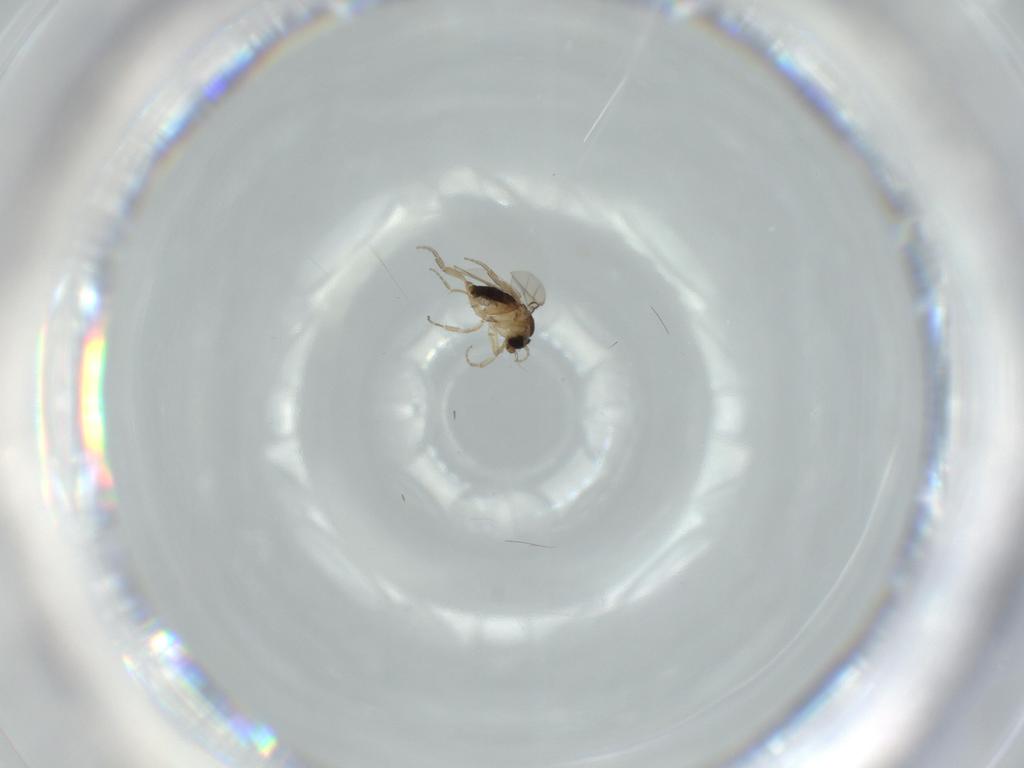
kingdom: Animalia
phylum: Arthropoda
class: Insecta
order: Diptera
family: Phoridae
